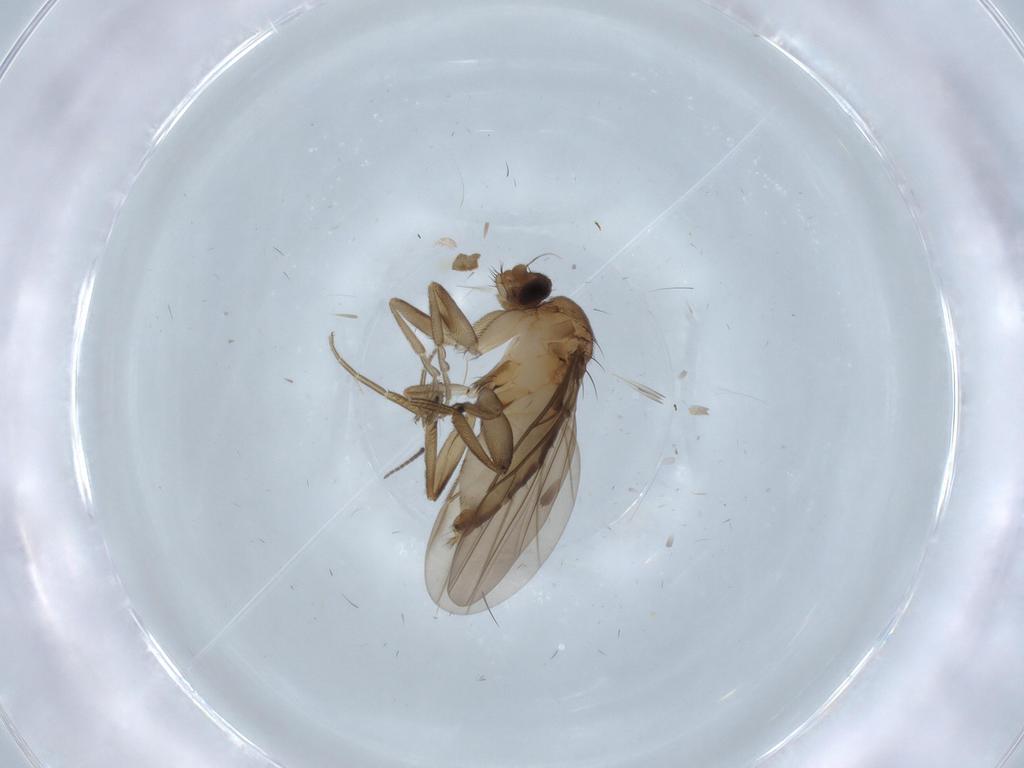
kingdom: Animalia
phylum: Arthropoda
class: Insecta
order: Diptera
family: Phoridae
